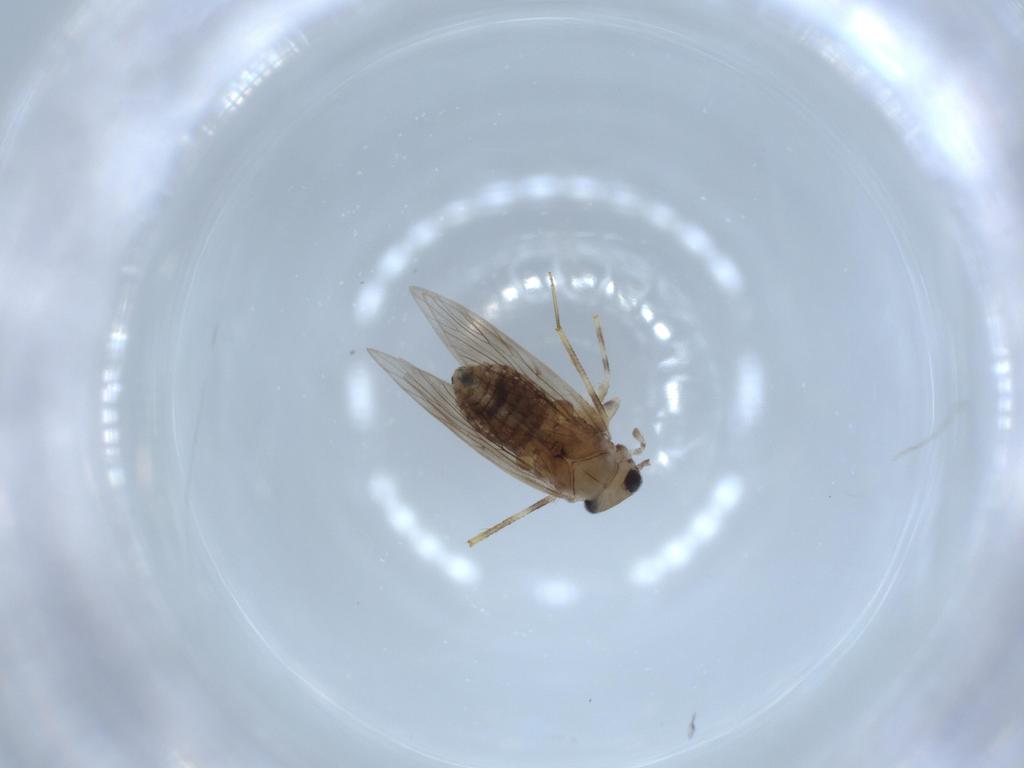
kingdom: Animalia
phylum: Arthropoda
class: Insecta
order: Psocodea
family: Lepidopsocidae
